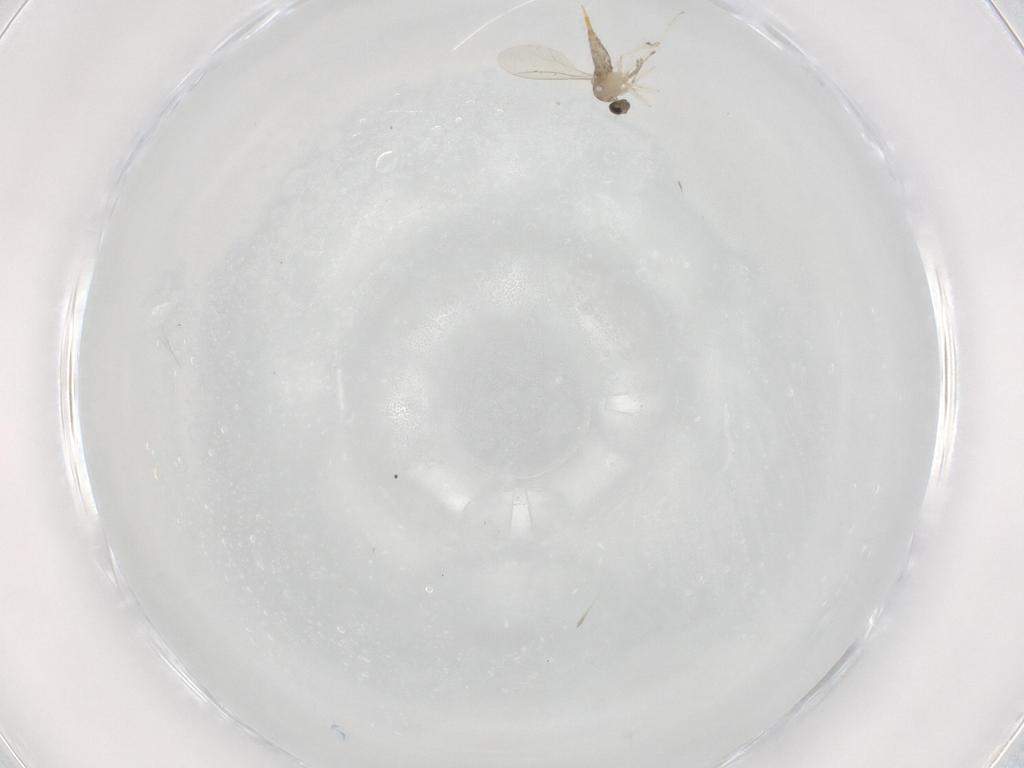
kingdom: Animalia
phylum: Arthropoda
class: Insecta
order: Diptera
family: Cecidomyiidae
